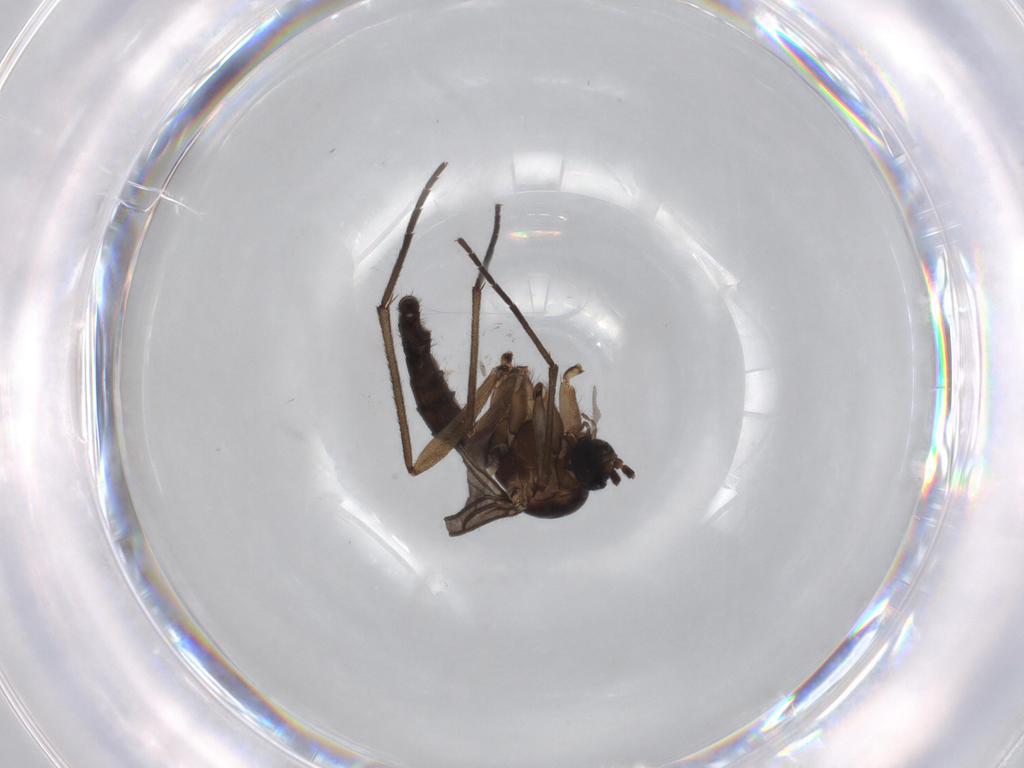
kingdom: Animalia
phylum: Arthropoda
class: Insecta
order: Diptera
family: Sciaridae
